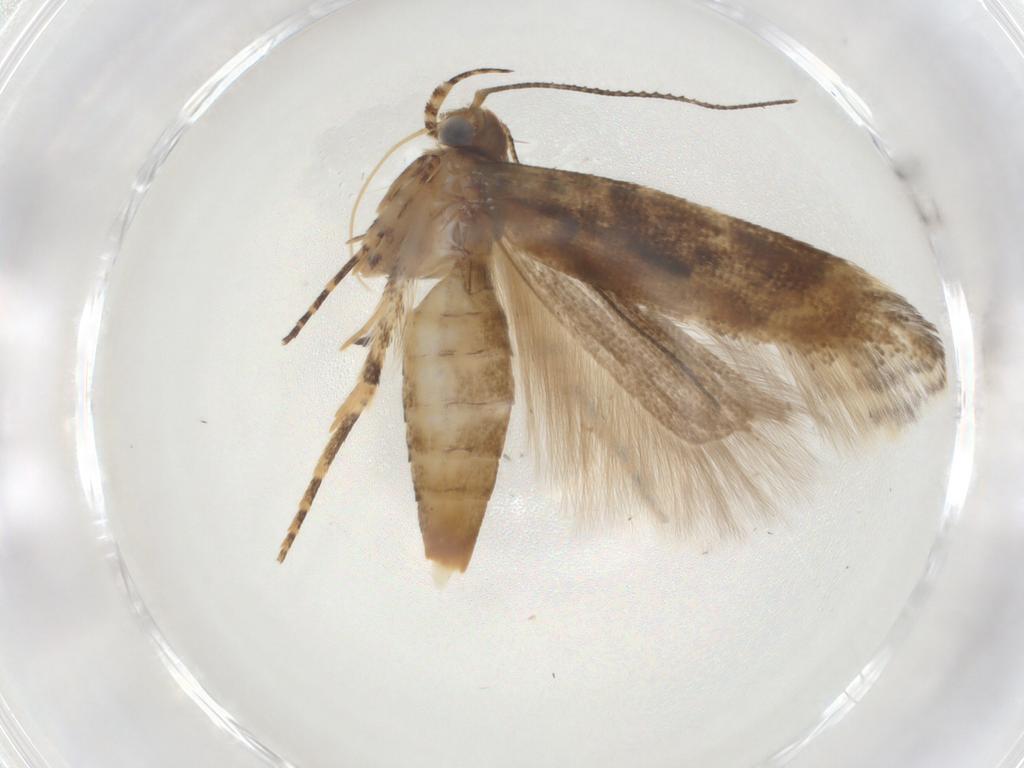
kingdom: Animalia
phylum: Arthropoda
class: Insecta
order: Lepidoptera
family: Gelechiidae
